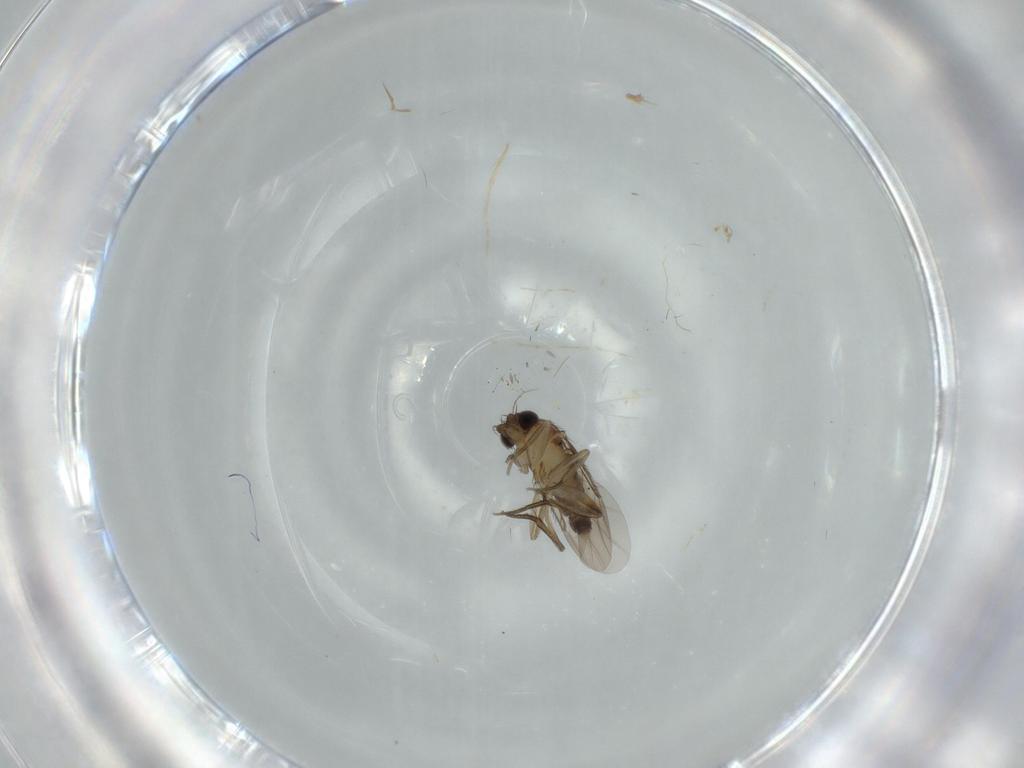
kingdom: Animalia
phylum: Arthropoda
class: Insecta
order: Diptera
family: Phoridae
